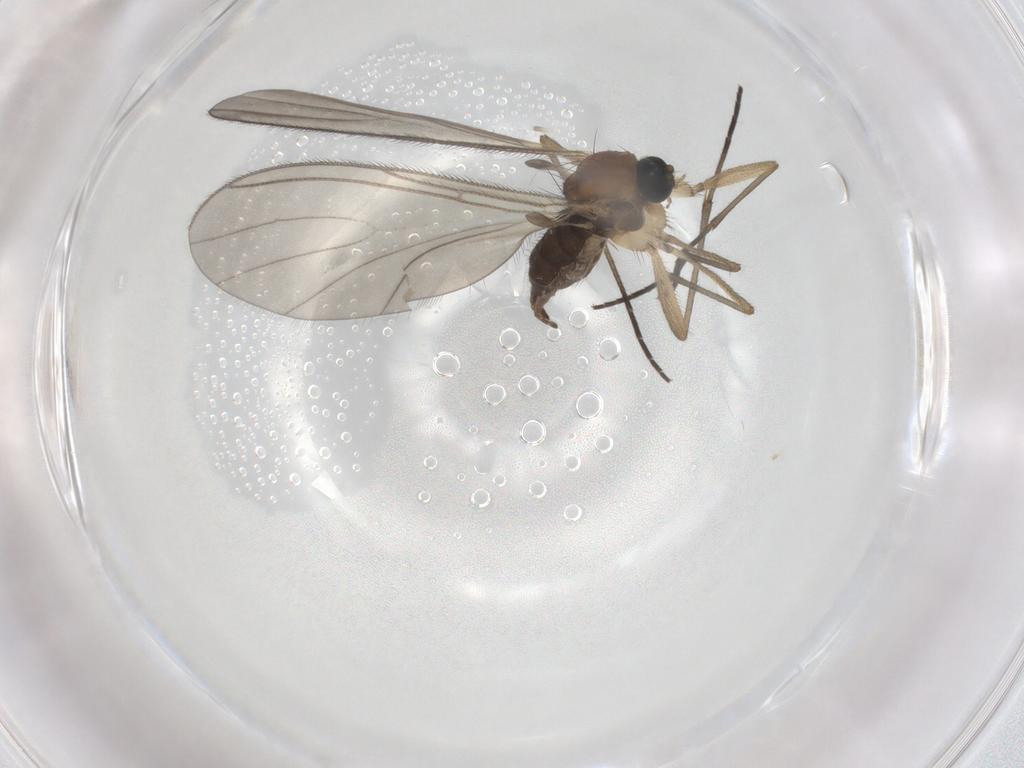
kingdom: Animalia
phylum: Arthropoda
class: Insecta
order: Diptera
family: Sciaridae
